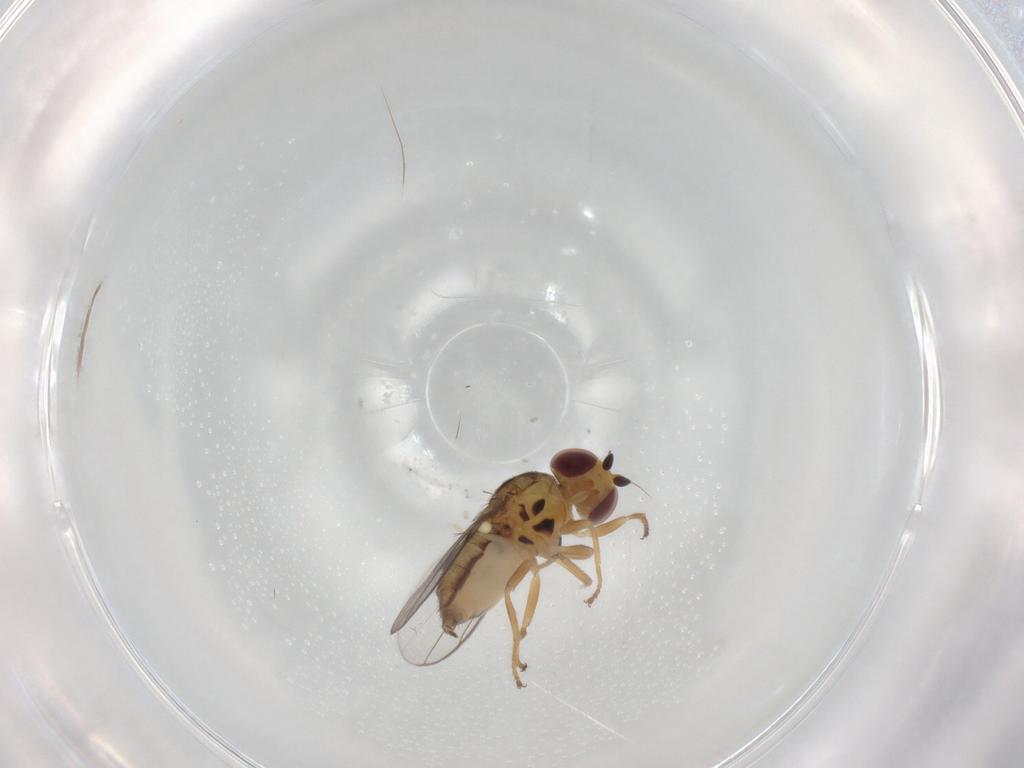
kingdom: Animalia
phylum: Arthropoda
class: Insecta
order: Diptera
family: Chloropidae
